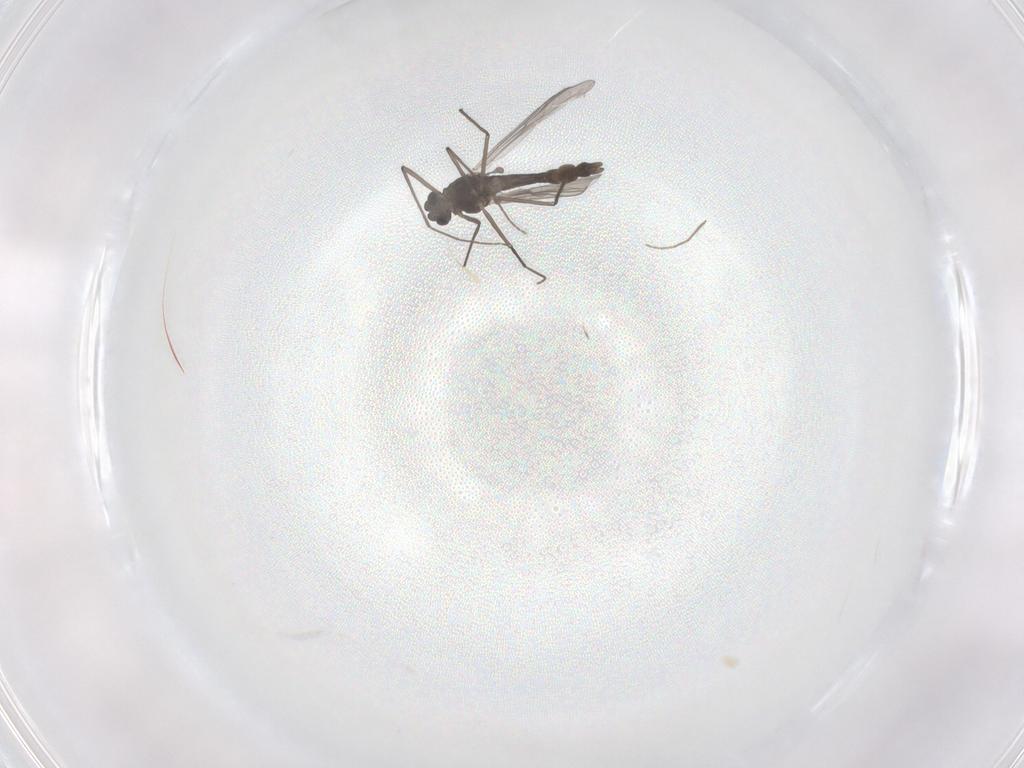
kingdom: Animalia
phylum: Arthropoda
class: Insecta
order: Diptera
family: Chironomidae
